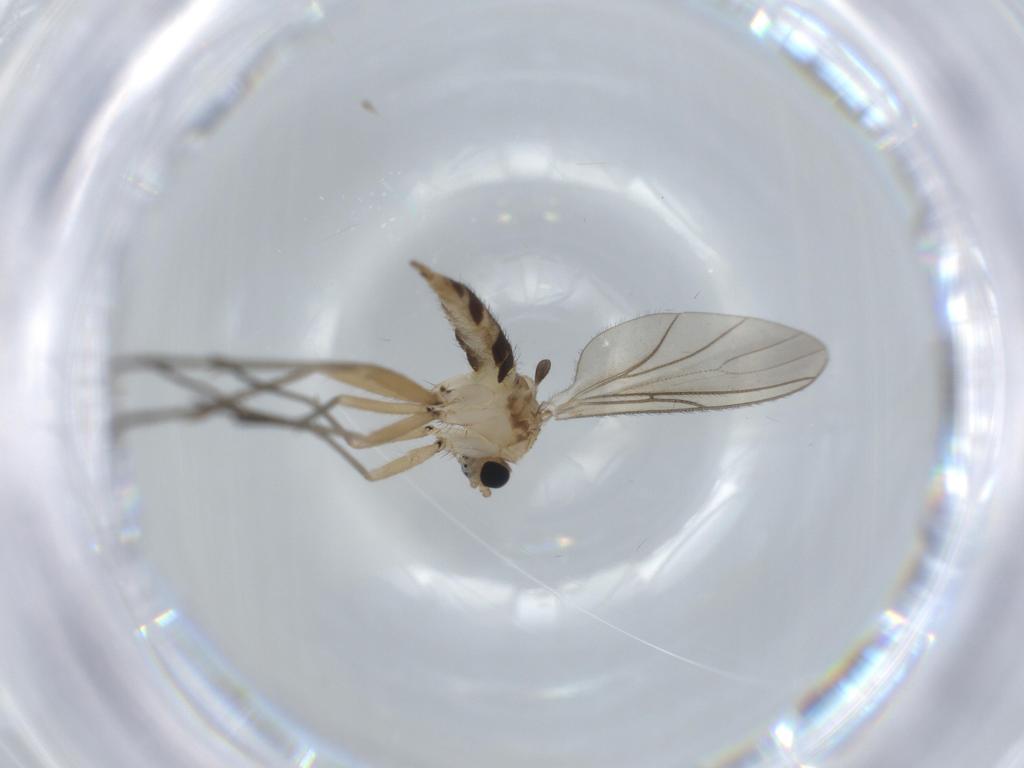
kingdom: Animalia
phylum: Arthropoda
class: Insecta
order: Diptera
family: Sciaridae
